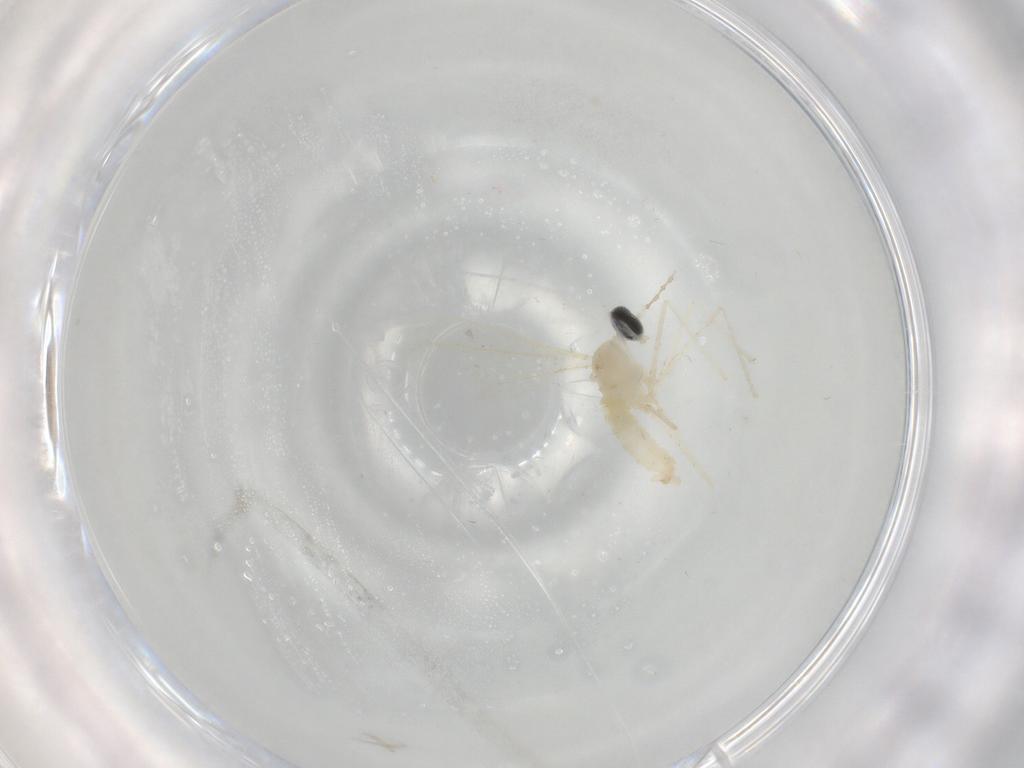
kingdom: Animalia
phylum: Arthropoda
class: Insecta
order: Diptera
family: Cecidomyiidae
